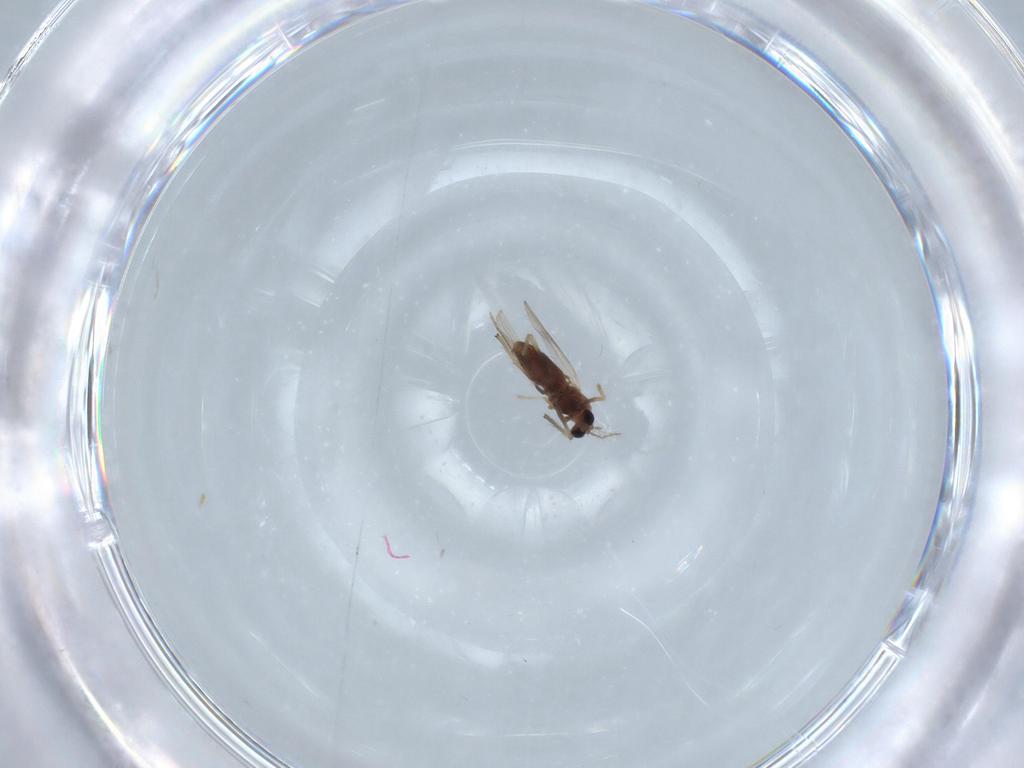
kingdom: Animalia
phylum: Arthropoda
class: Insecta
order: Diptera
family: Chironomidae
